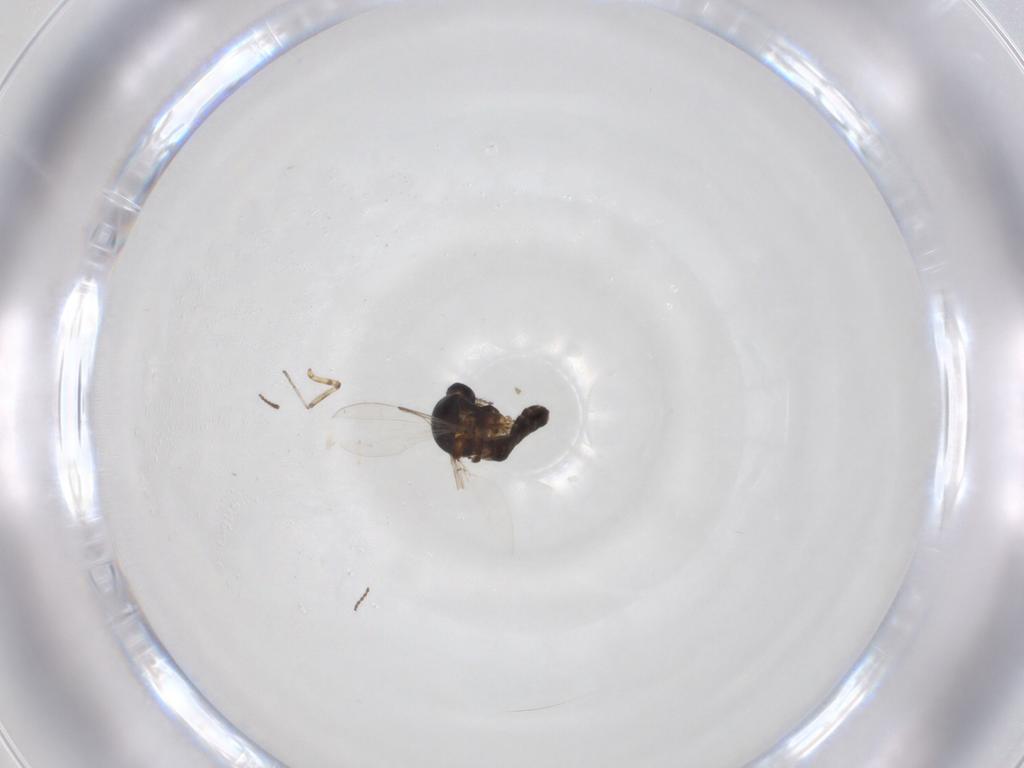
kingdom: Animalia
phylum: Arthropoda
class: Insecta
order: Diptera
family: Ceratopogonidae
